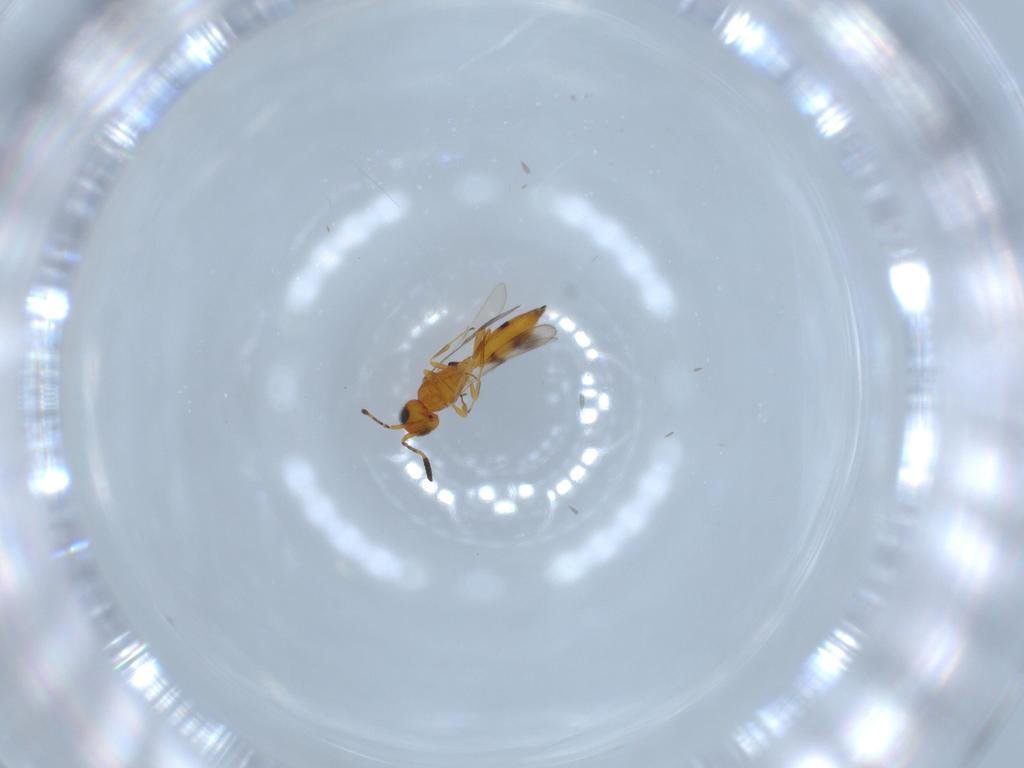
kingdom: Animalia
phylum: Arthropoda
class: Insecta
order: Hymenoptera
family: Scelionidae
